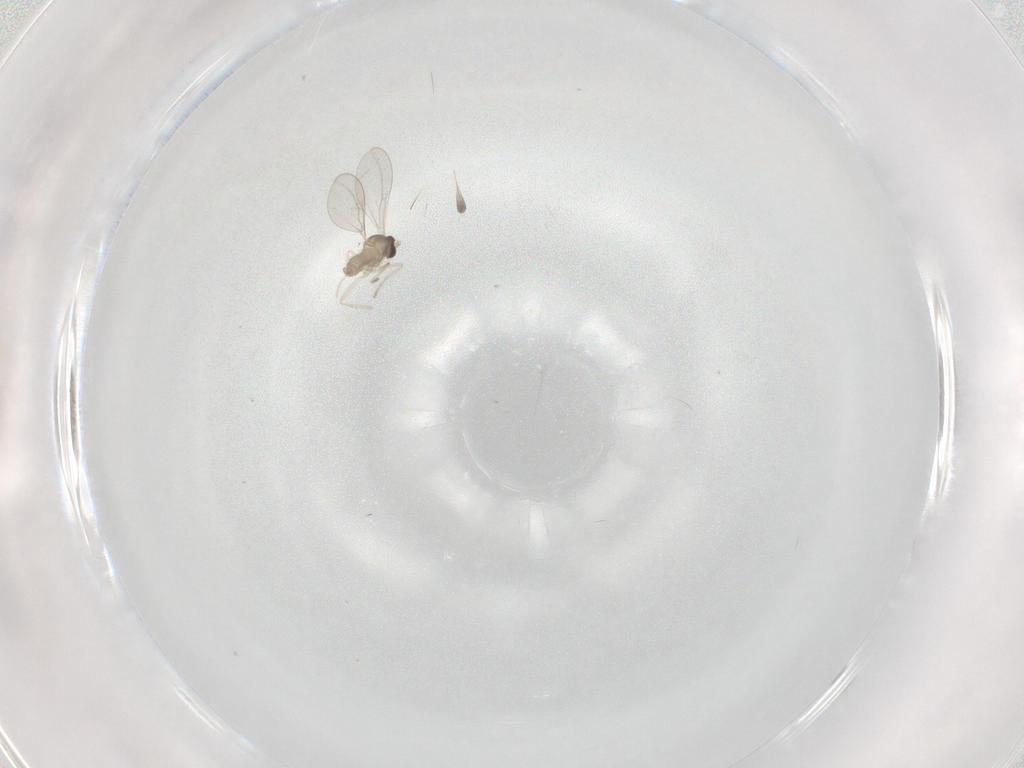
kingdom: Animalia
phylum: Arthropoda
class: Insecta
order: Diptera
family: Cecidomyiidae
